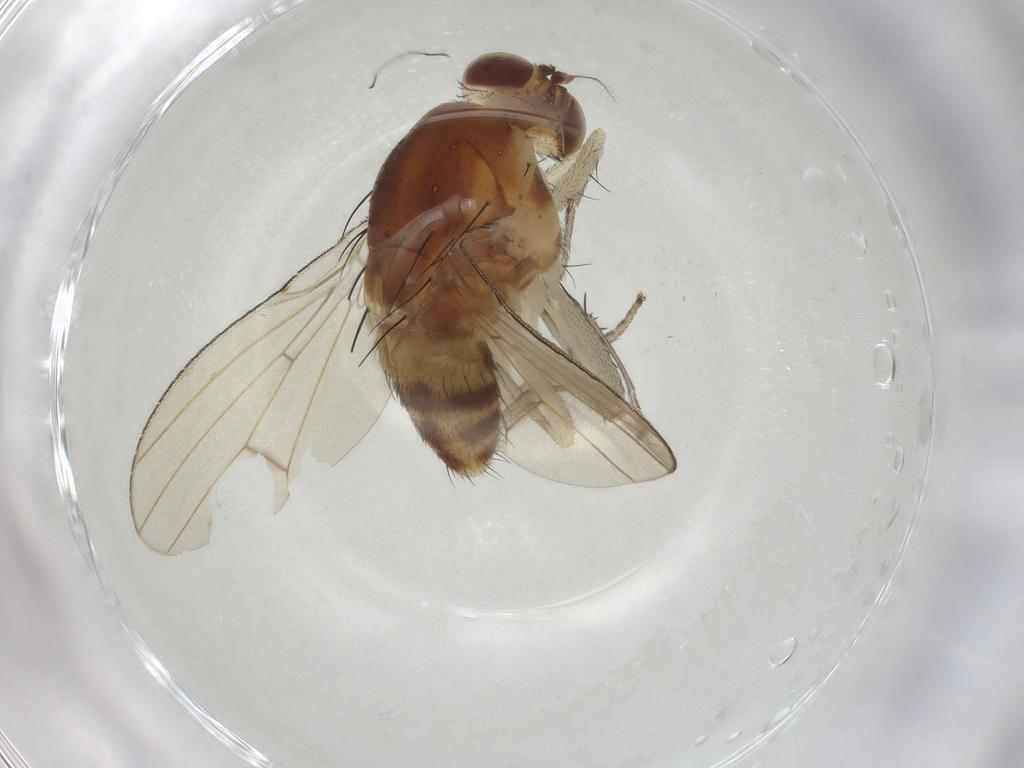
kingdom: Animalia
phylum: Arthropoda
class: Insecta
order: Diptera
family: Lauxaniidae
